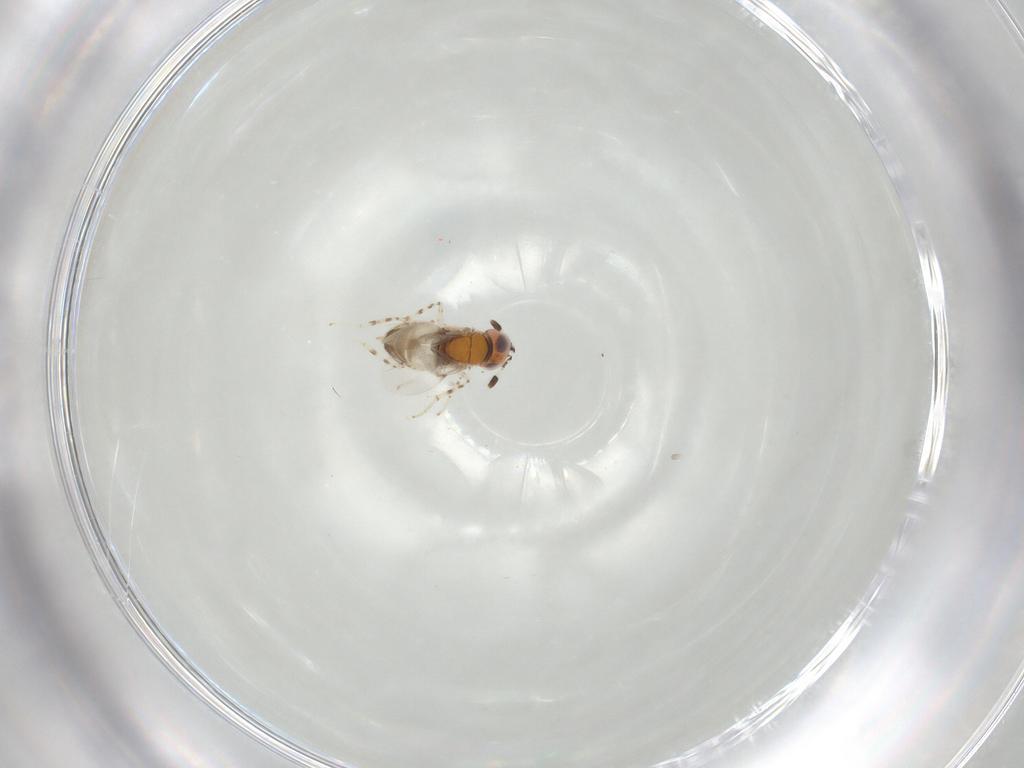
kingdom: Animalia
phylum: Arthropoda
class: Insecta
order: Hymenoptera
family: Encyrtidae
